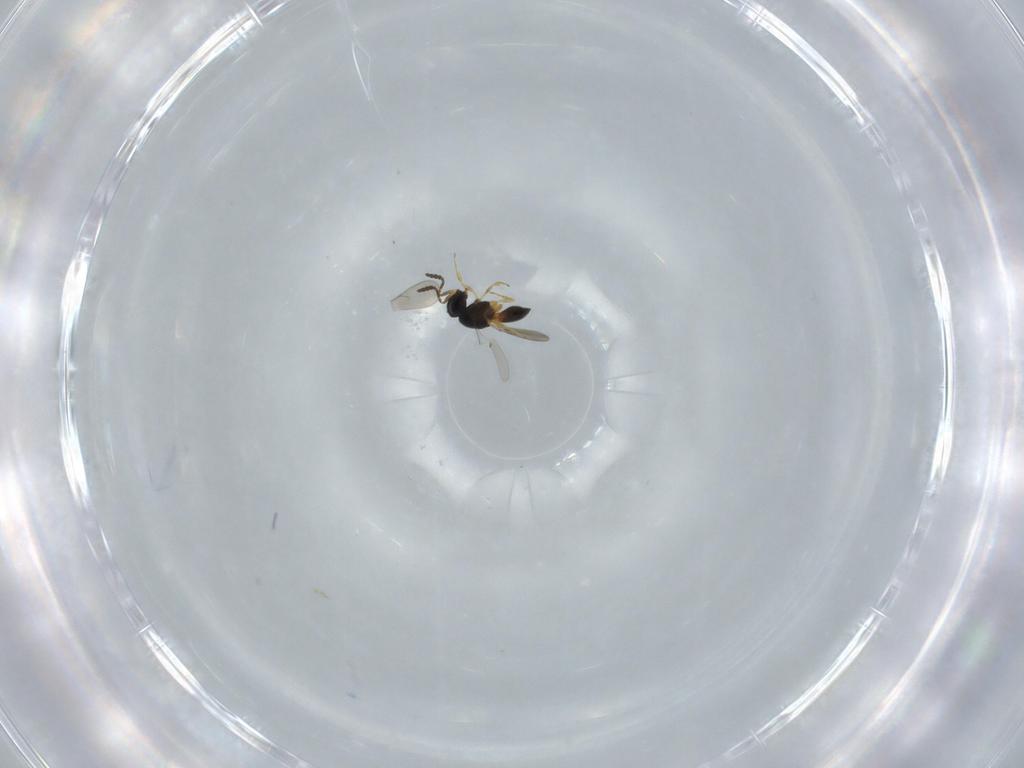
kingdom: Animalia
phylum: Arthropoda
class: Insecta
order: Hymenoptera
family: Scelionidae
